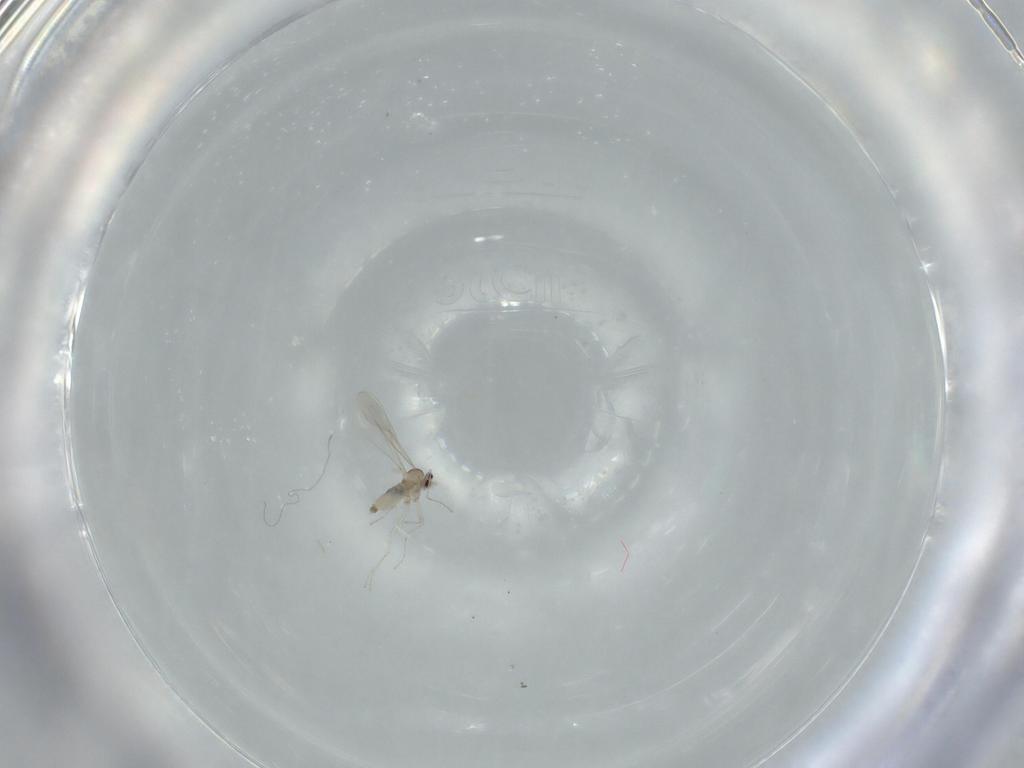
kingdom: Animalia
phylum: Arthropoda
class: Insecta
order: Diptera
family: Cecidomyiidae
